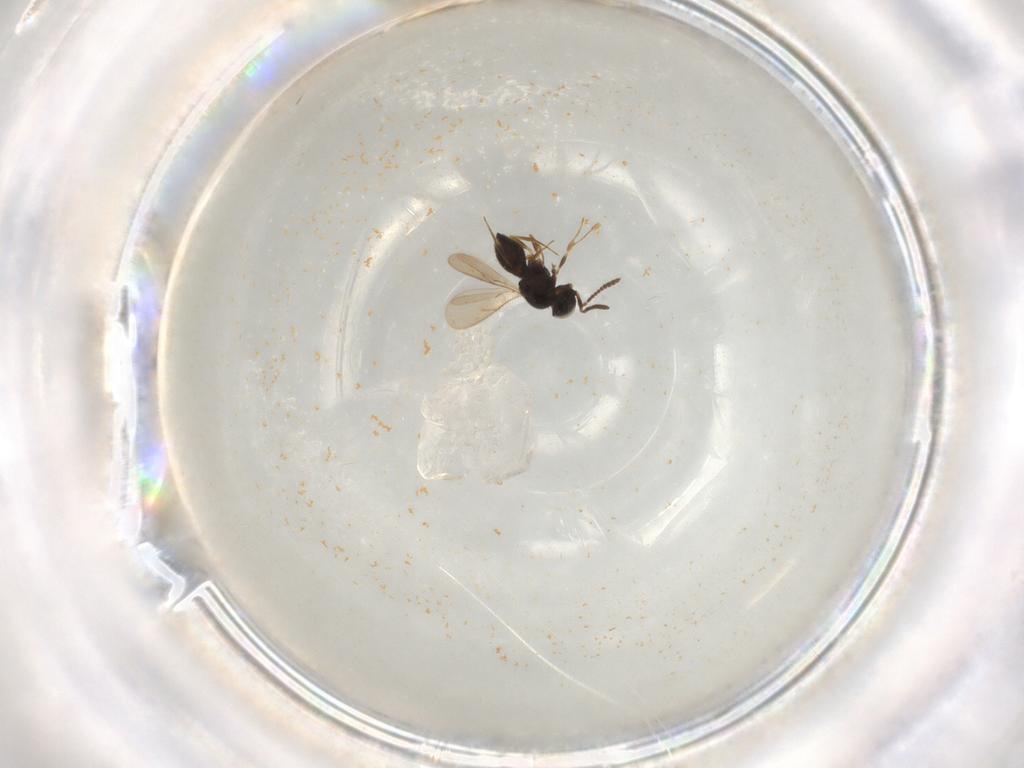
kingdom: Animalia
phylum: Arthropoda
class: Insecta
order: Hymenoptera
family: Scelionidae
